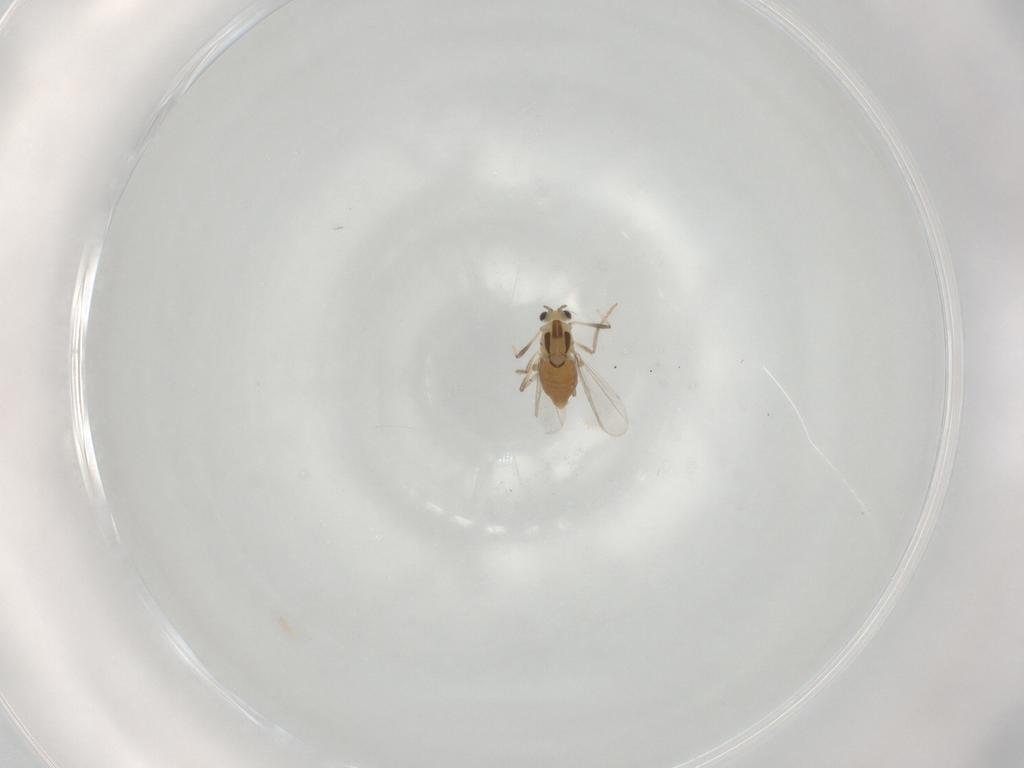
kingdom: Animalia
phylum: Arthropoda
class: Insecta
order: Diptera
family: Chironomidae
